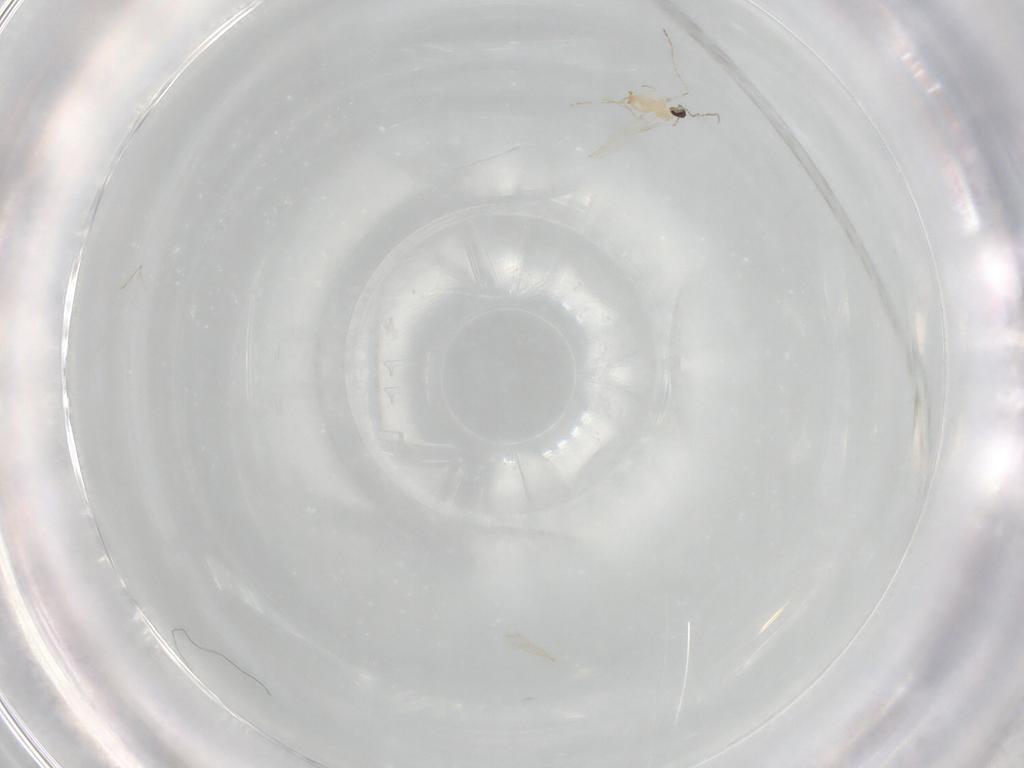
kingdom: Animalia
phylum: Arthropoda
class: Insecta
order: Diptera
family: Cecidomyiidae
